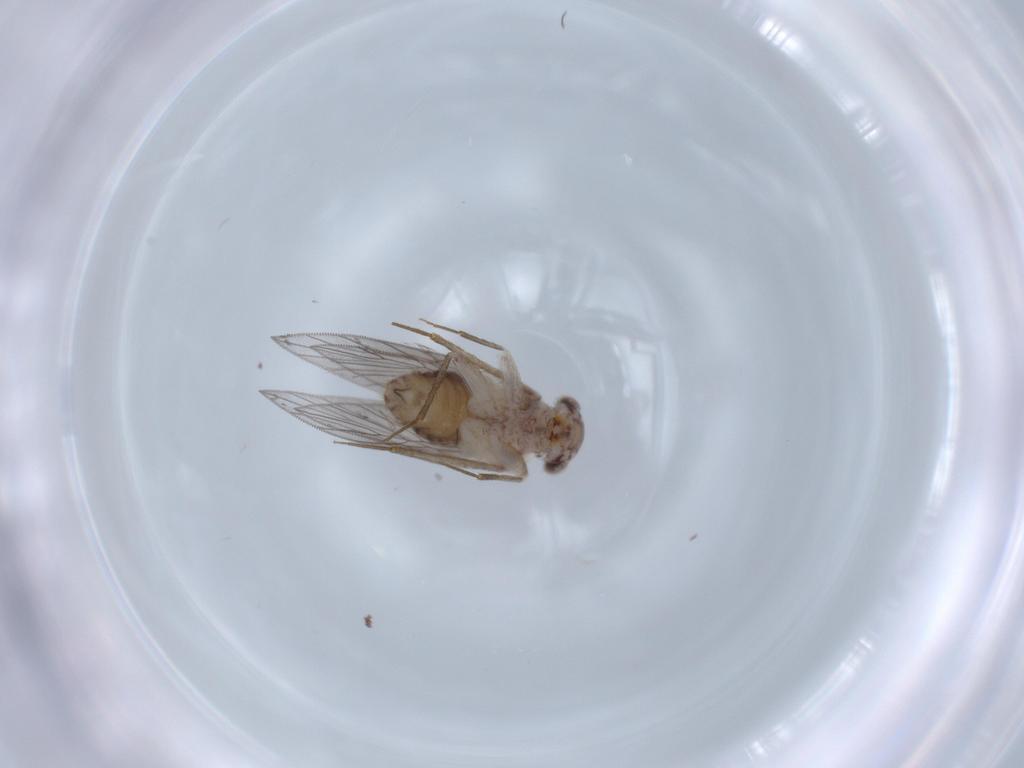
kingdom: Animalia
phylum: Arthropoda
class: Insecta
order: Psocodea
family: Lepidopsocidae
